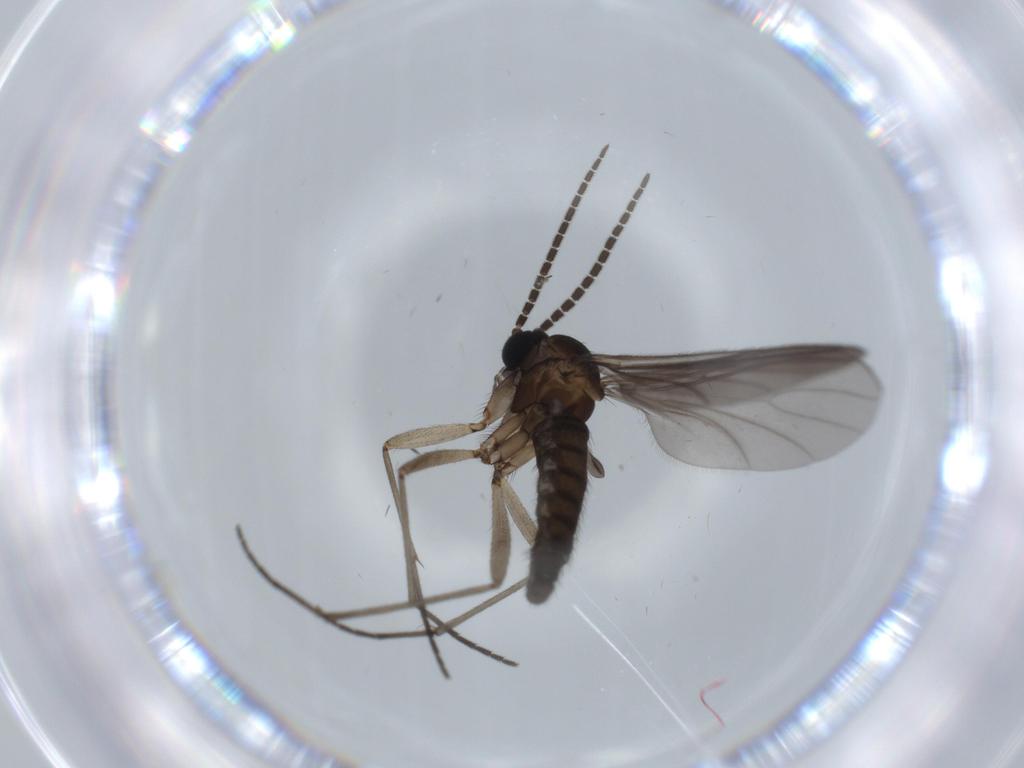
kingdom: Animalia
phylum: Arthropoda
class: Insecta
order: Diptera
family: Sciaridae
